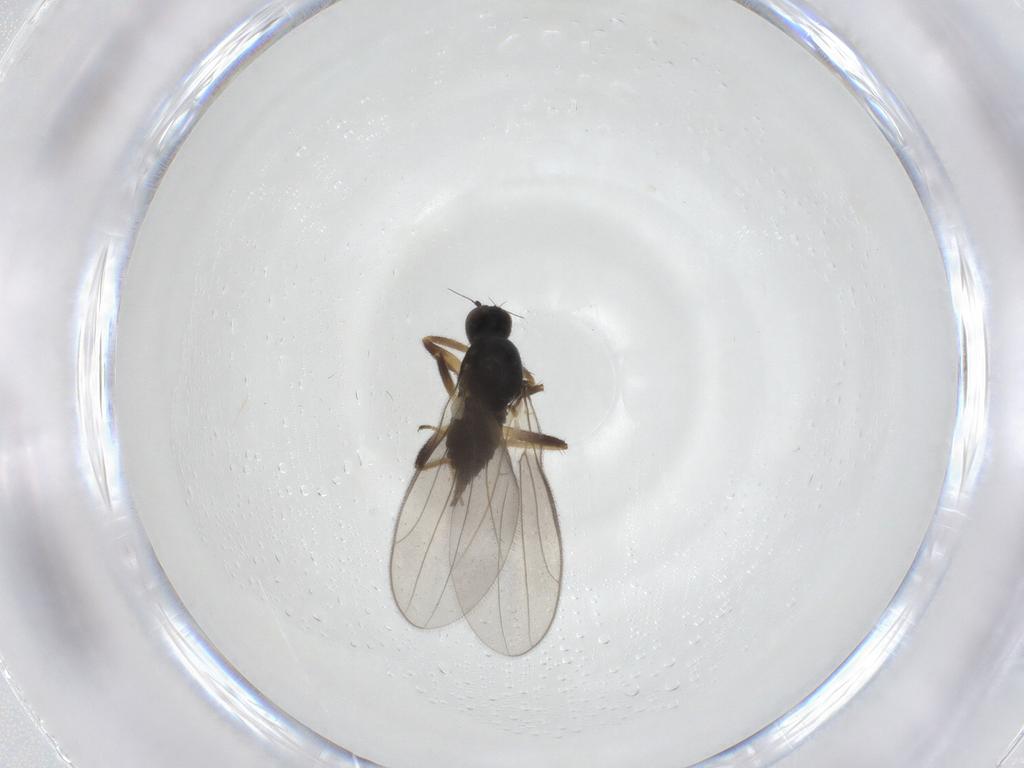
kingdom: Animalia
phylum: Arthropoda
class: Insecta
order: Diptera
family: Hybotidae
